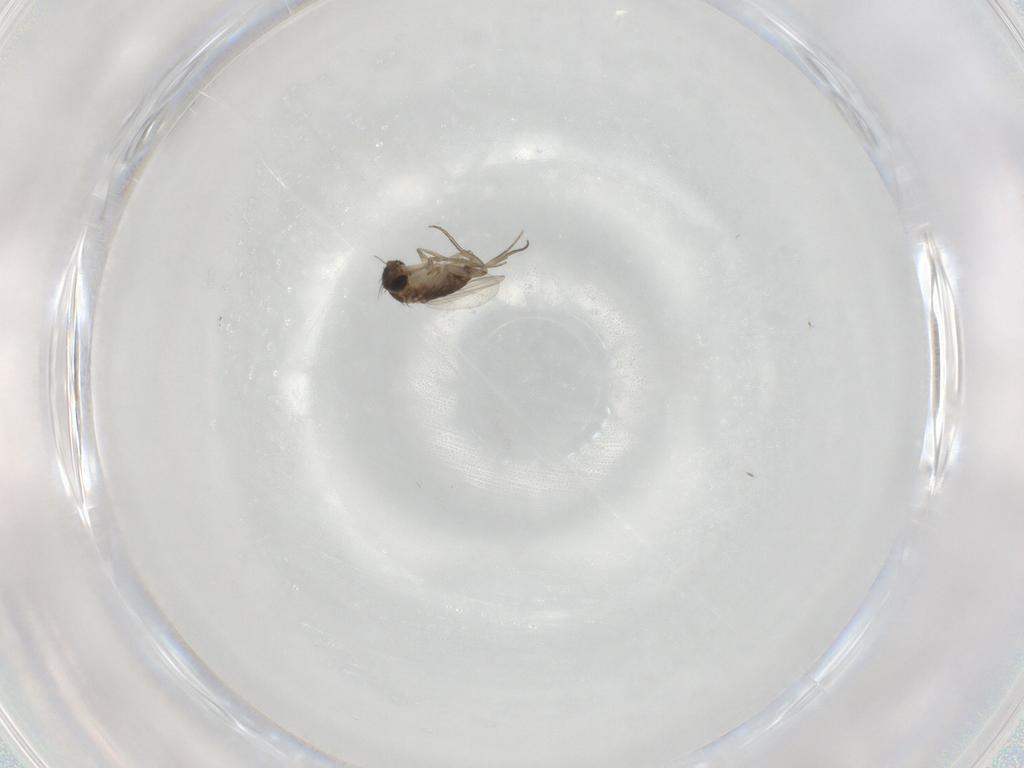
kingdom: Animalia
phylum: Arthropoda
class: Insecta
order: Diptera
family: Phoridae
